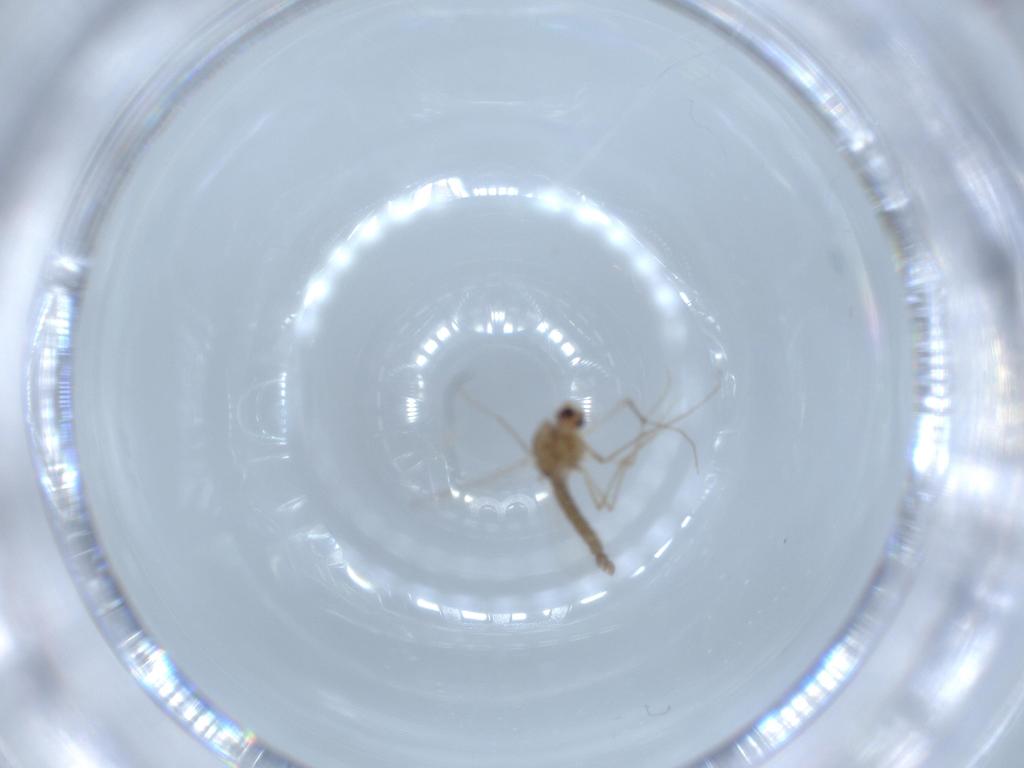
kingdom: Animalia
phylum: Arthropoda
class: Insecta
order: Diptera
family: Chironomidae
